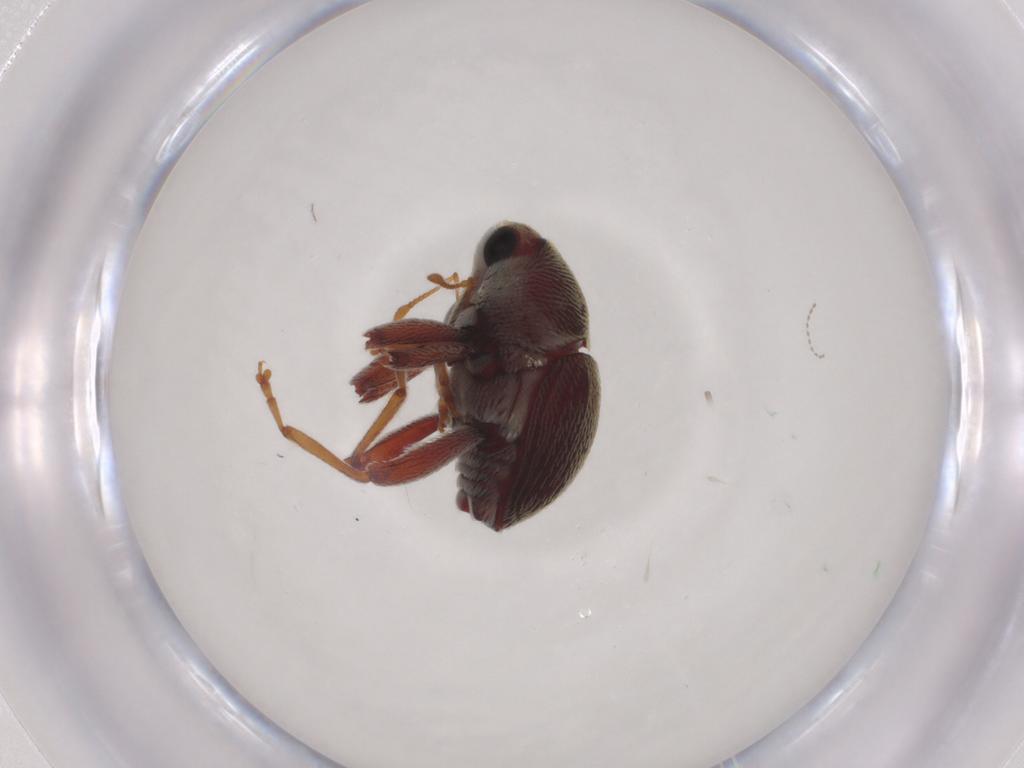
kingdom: Animalia
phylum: Arthropoda
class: Insecta
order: Coleoptera
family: Curculionidae
